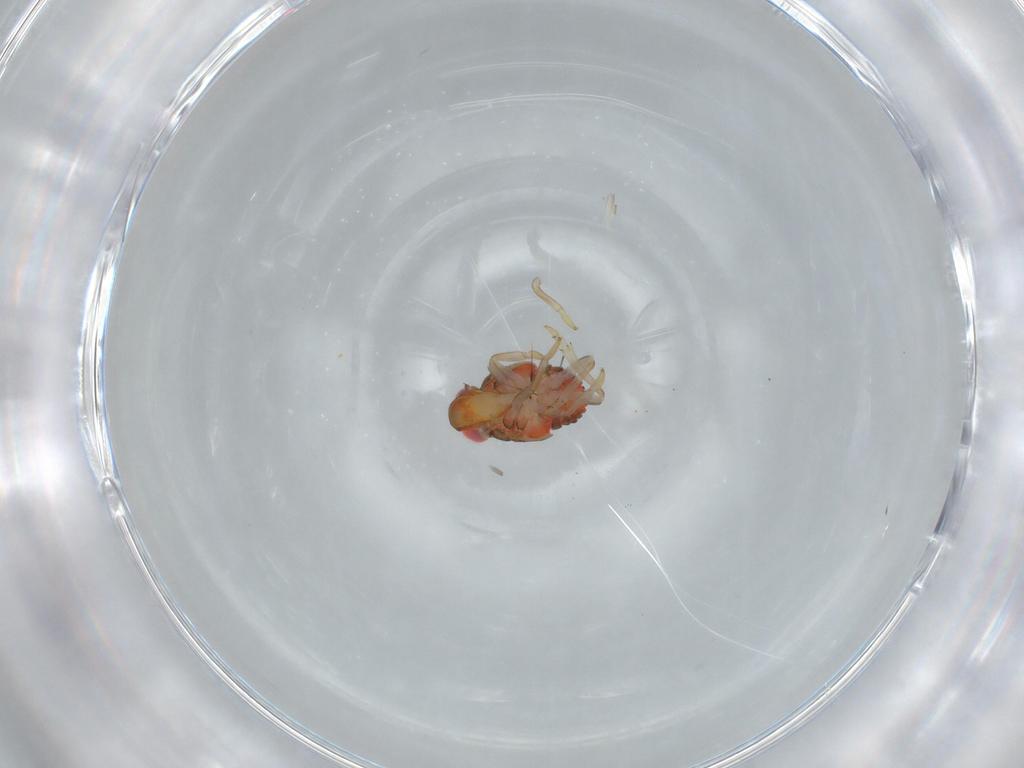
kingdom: Animalia
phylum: Arthropoda
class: Insecta
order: Hemiptera
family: Issidae
